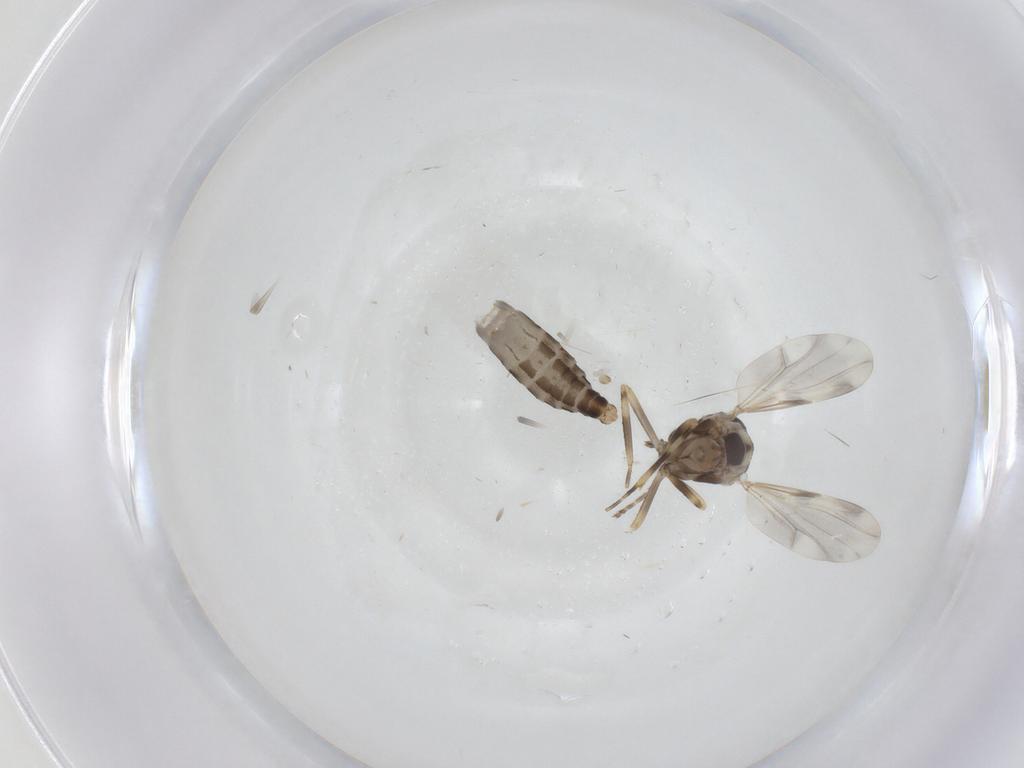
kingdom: Animalia
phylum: Arthropoda
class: Insecta
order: Diptera
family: Ceratopogonidae
